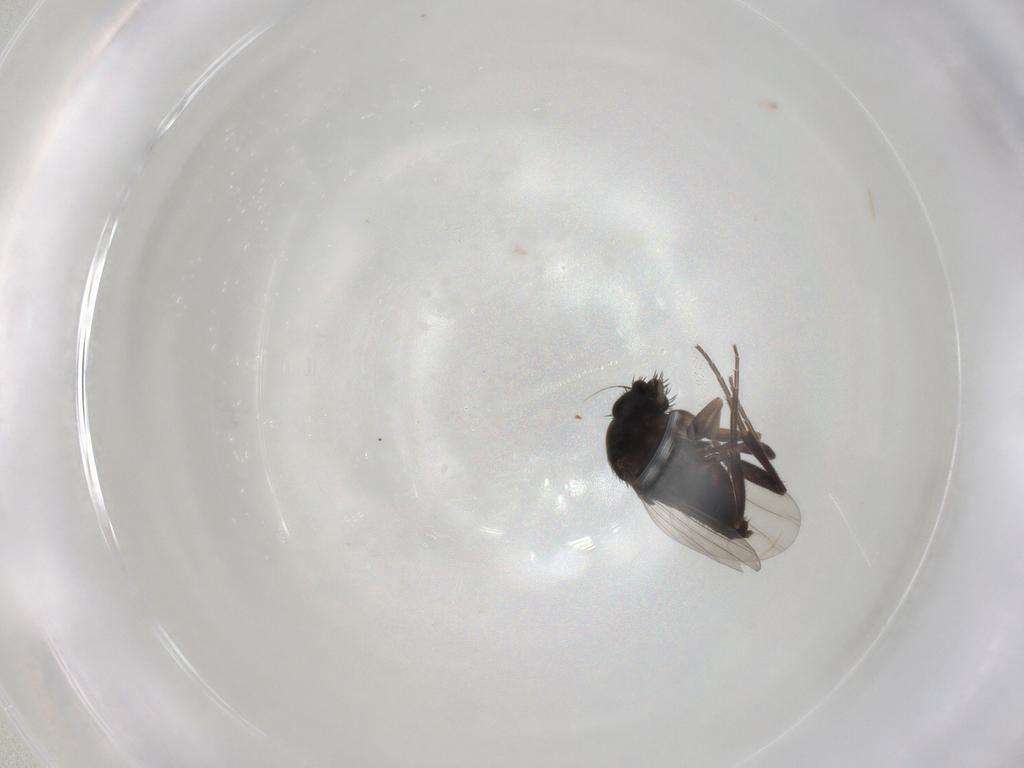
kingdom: Animalia
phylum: Arthropoda
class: Insecta
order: Diptera
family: Phoridae
